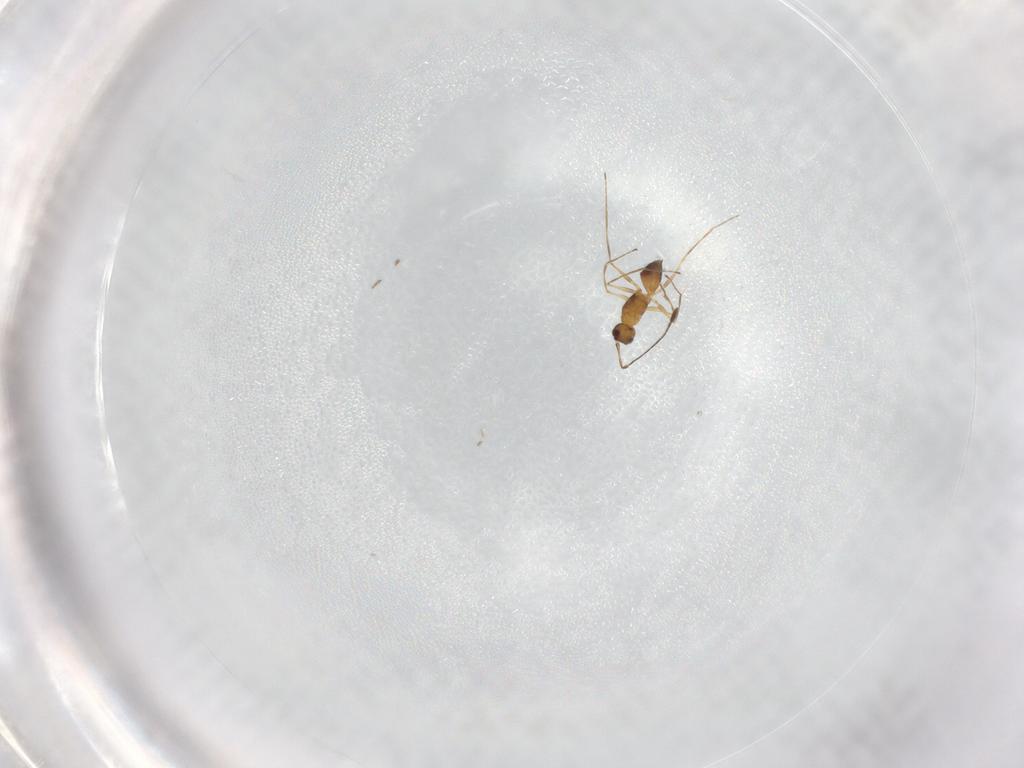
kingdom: Animalia
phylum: Arthropoda
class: Insecta
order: Hymenoptera
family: Mymaridae
